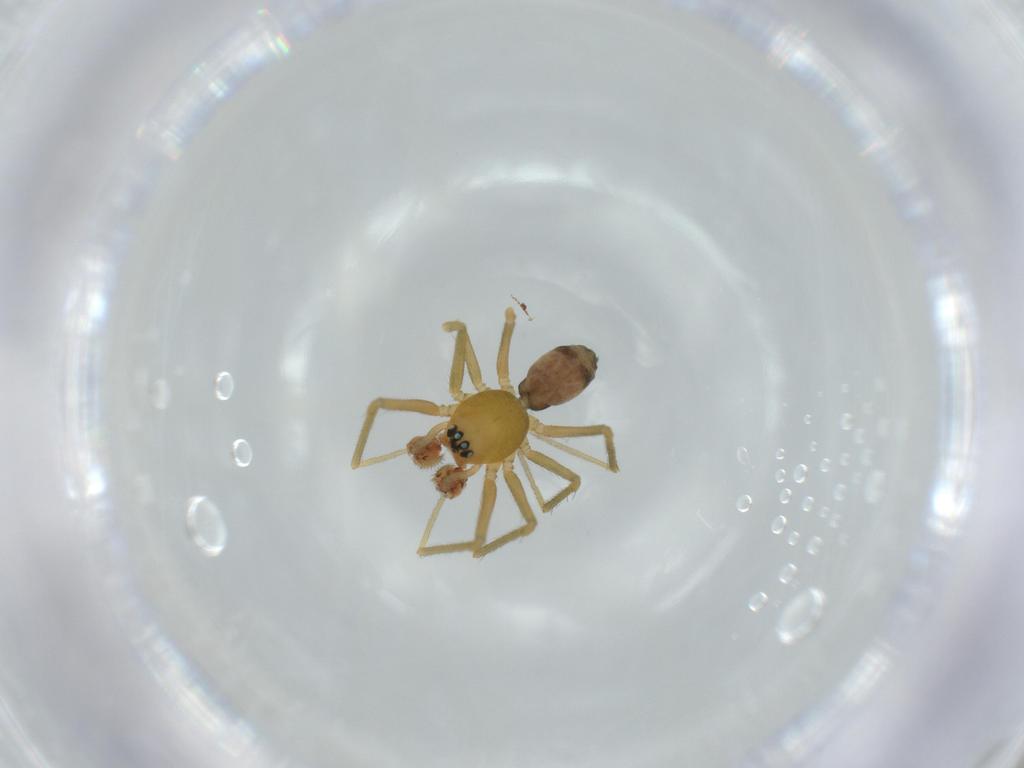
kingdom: Animalia
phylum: Arthropoda
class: Arachnida
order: Araneae
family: Linyphiidae
